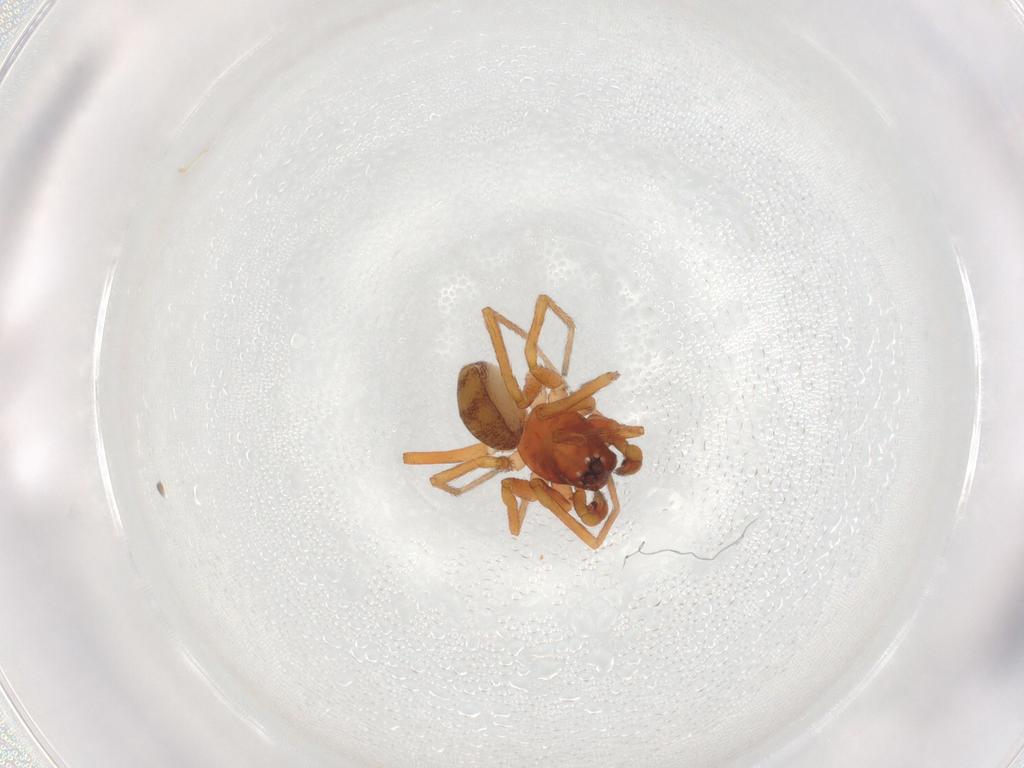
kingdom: Animalia
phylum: Arthropoda
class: Arachnida
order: Araneae
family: Zodariidae
